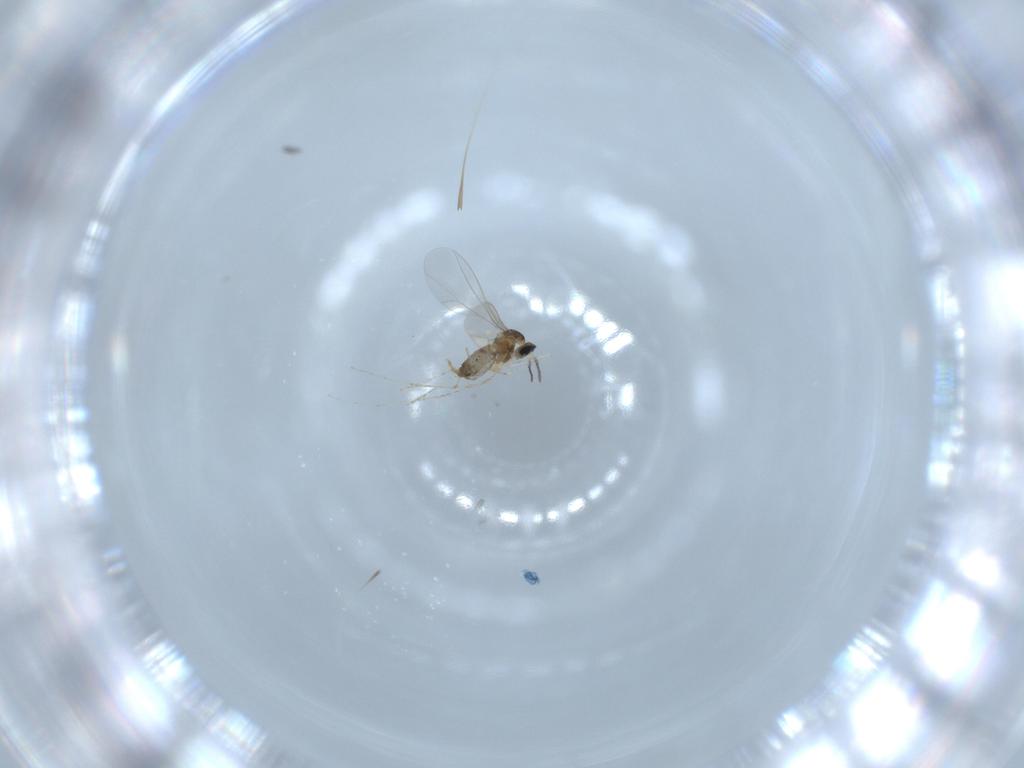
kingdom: Animalia
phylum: Arthropoda
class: Insecta
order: Diptera
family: Cecidomyiidae
